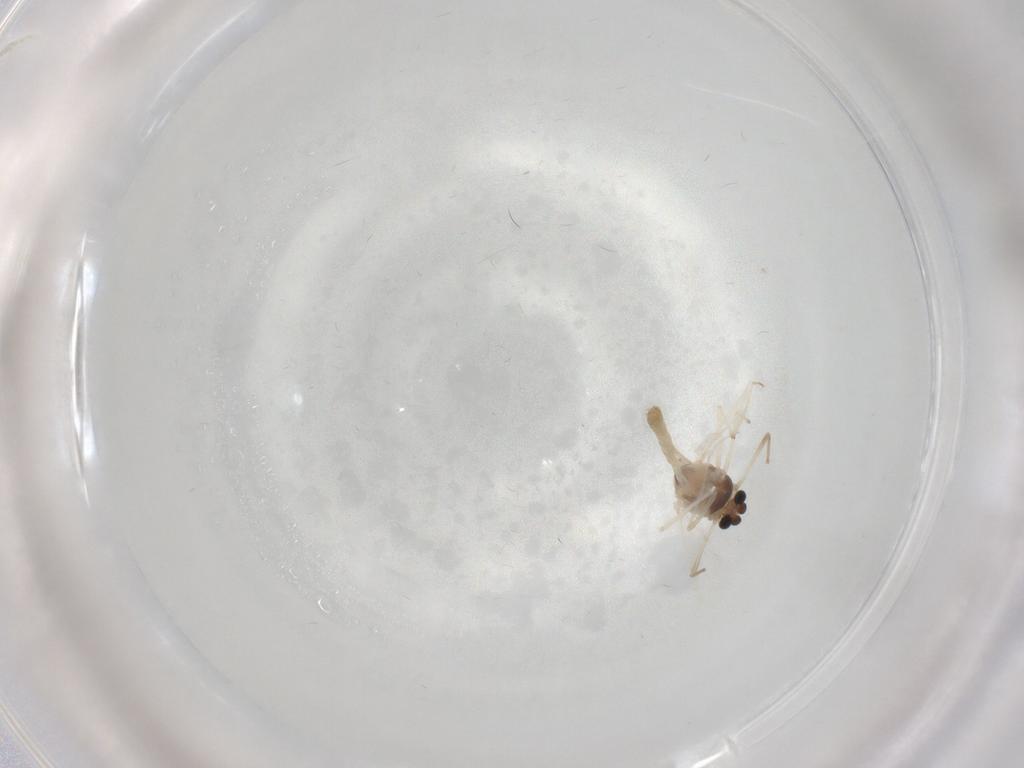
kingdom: Animalia
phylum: Arthropoda
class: Insecta
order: Diptera
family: Chironomidae
